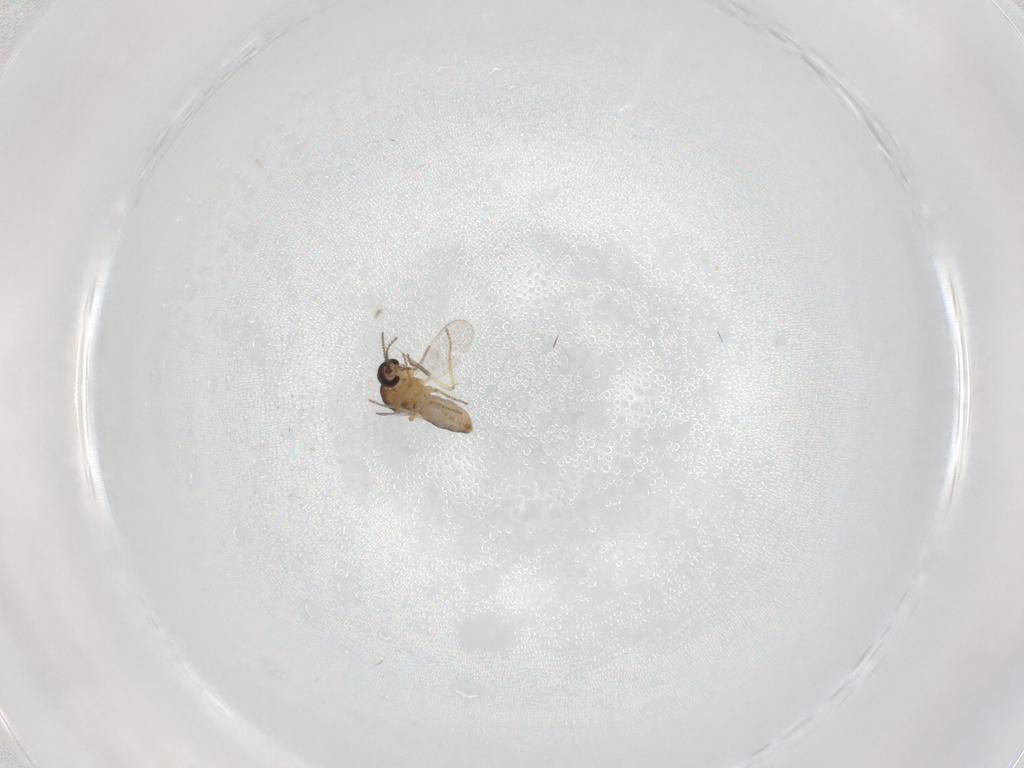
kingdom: Animalia
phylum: Arthropoda
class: Insecta
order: Diptera
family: Ceratopogonidae
